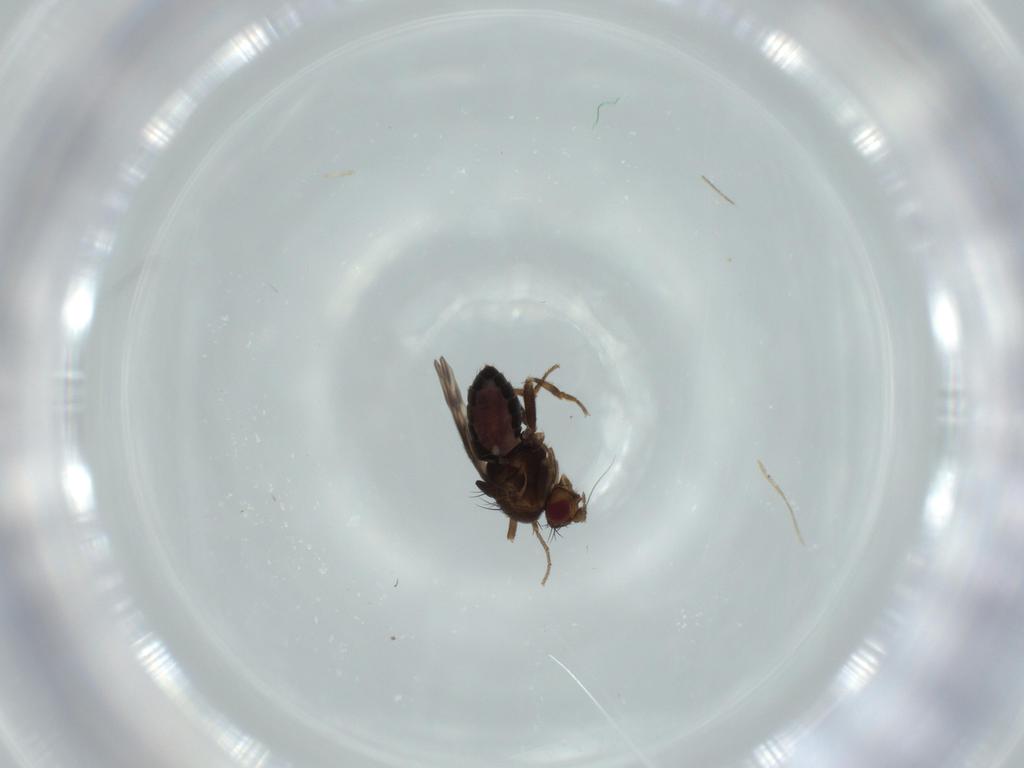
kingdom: Animalia
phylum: Arthropoda
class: Insecta
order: Diptera
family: Sphaeroceridae
